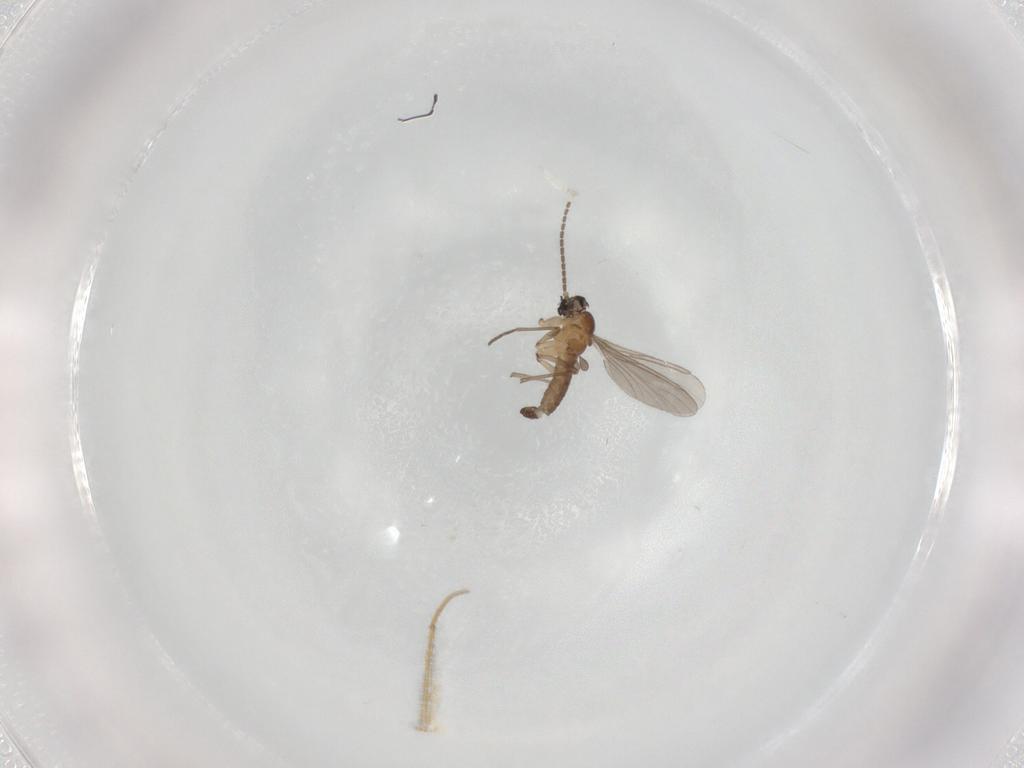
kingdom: Animalia
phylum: Arthropoda
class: Insecta
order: Diptera
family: Sciaridae
